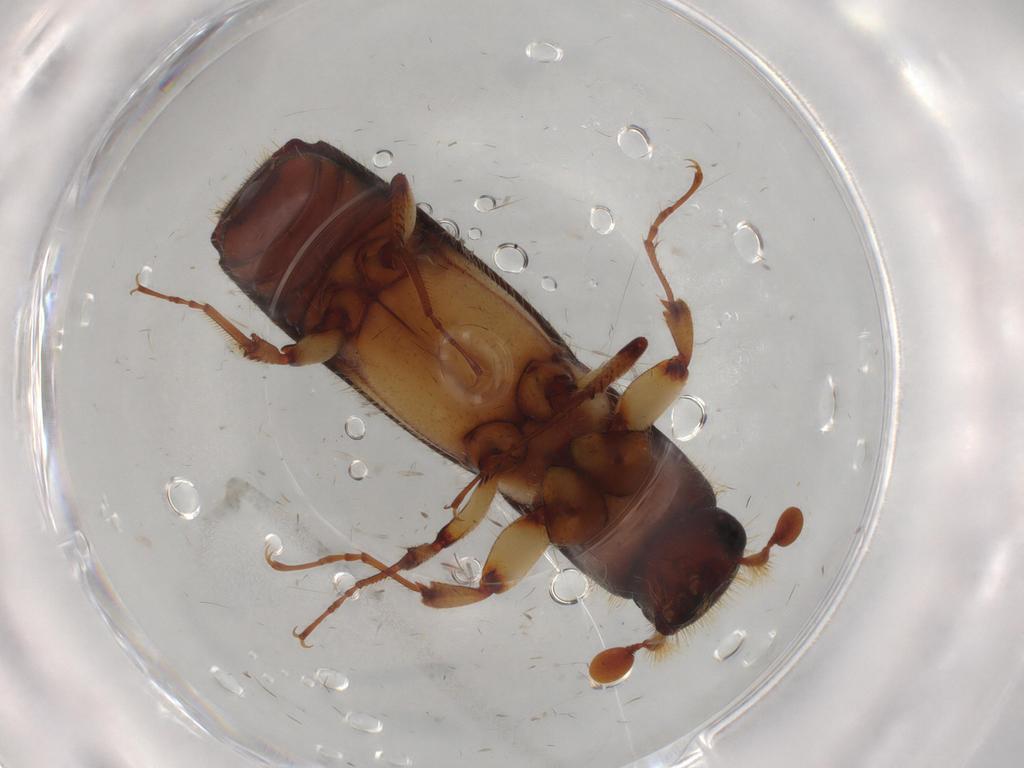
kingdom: Animalia
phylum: Arthropoda
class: Insecta
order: Coleoptera
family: Curculionidae
